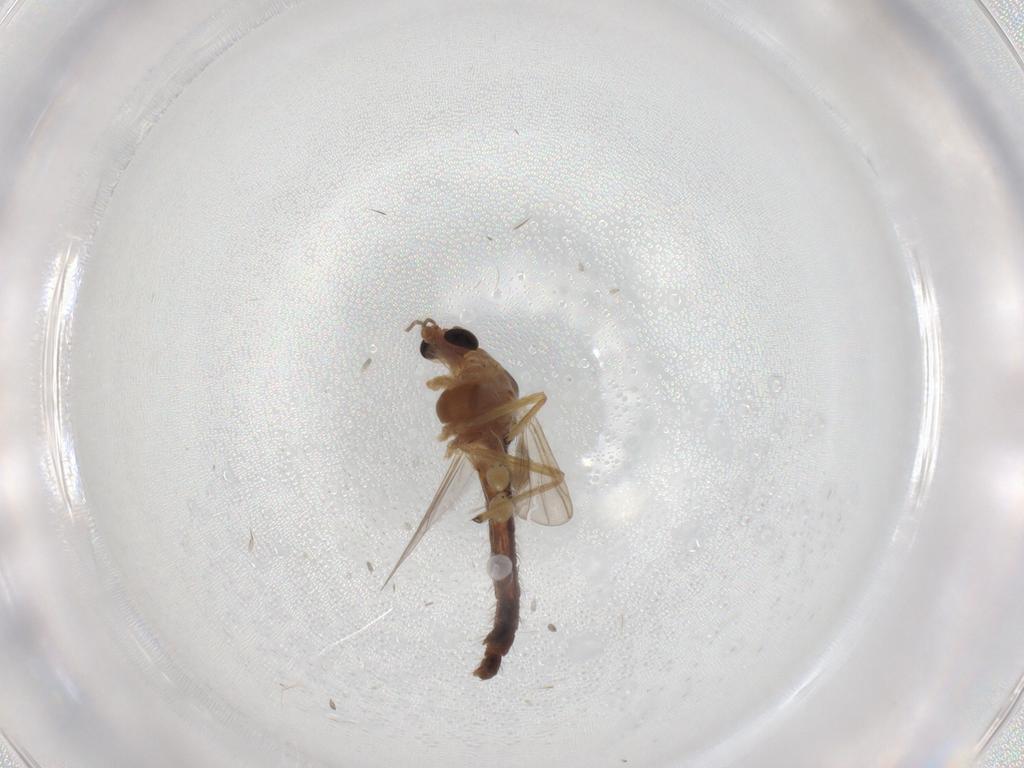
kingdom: Animalia
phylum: Arthropoda
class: Insecta
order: Diptera
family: Chironomidae
